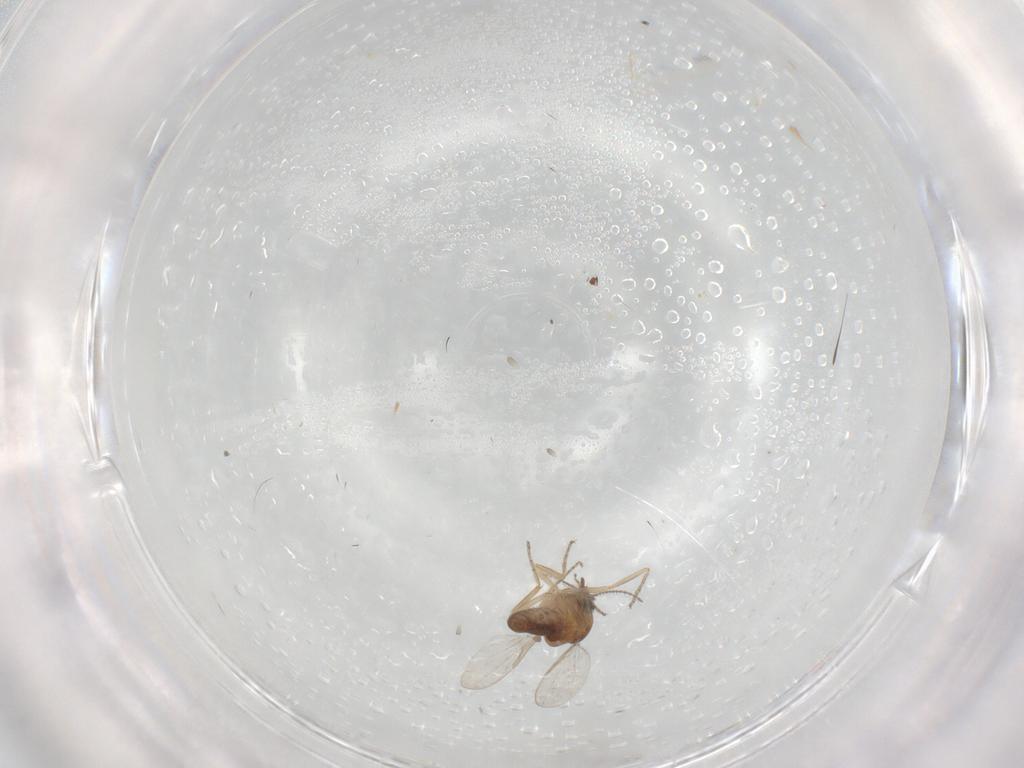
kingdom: Animalia
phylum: Arthropoda
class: Insecta
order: Diptera
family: Ceratopogonidae
